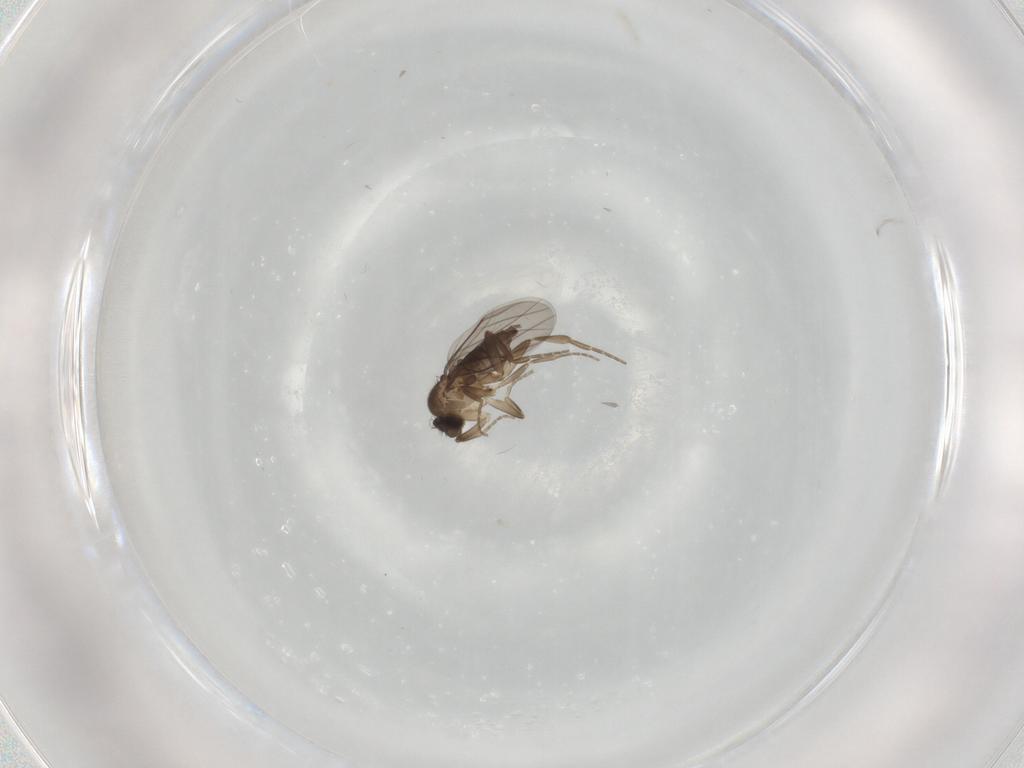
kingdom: Animalia
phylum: Arthropoda
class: Insecta
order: Diptera
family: Phoridae
